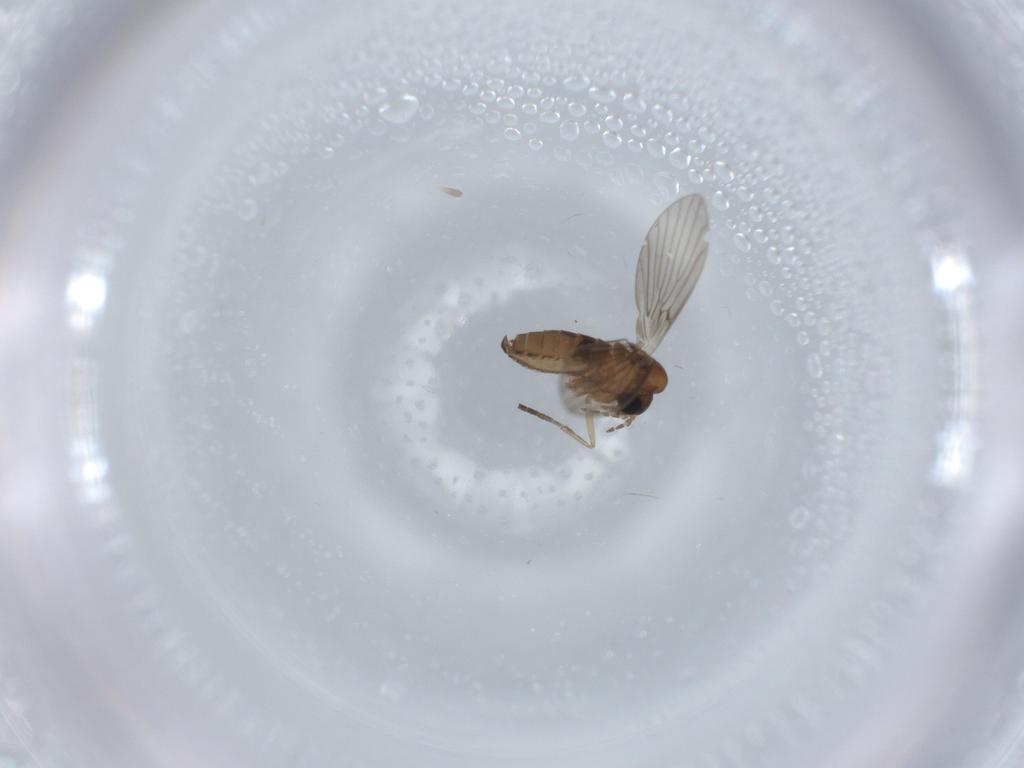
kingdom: Animalia
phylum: Arthropoda
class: Insecta
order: Diptera
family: Psychodidae
